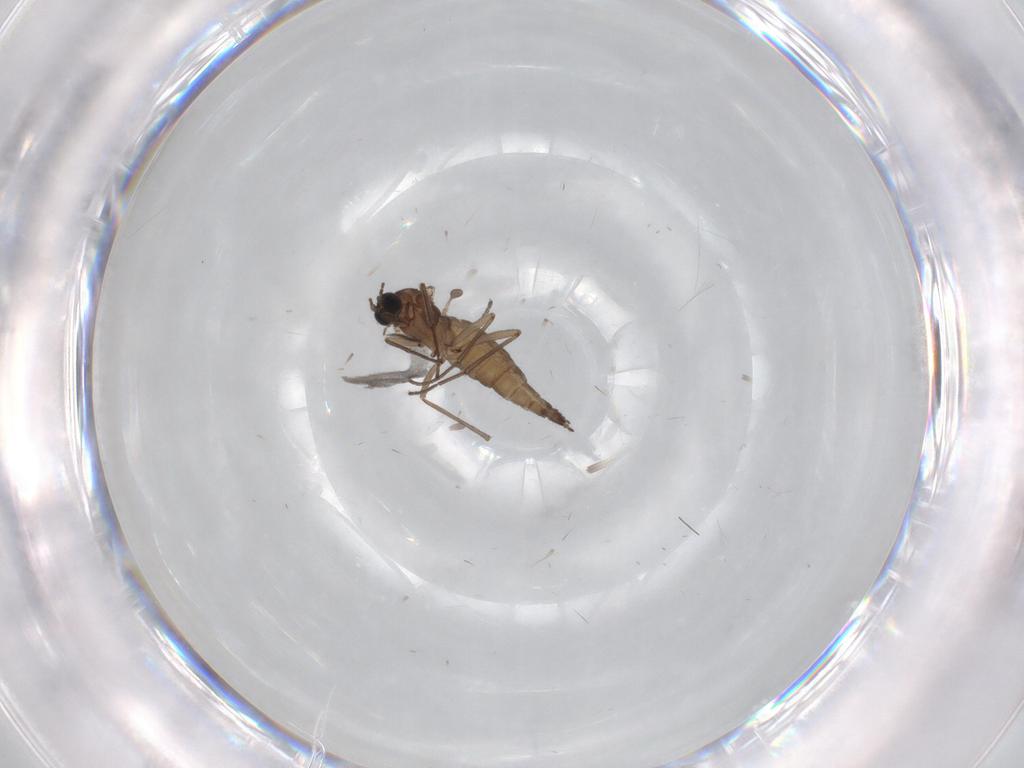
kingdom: Animalia
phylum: Arthropoda
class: Insecta
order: Diptera
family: Sciaridae
